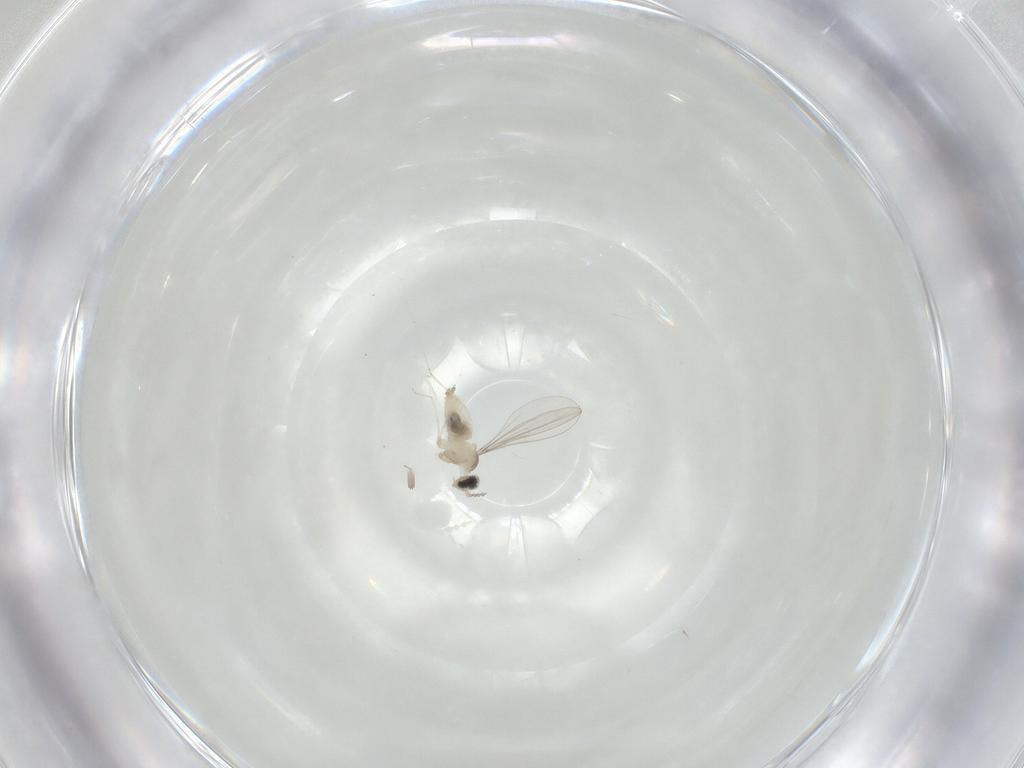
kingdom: Animalia
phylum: Arthropoda
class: Insecta
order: Diptera
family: Cecidomyiidae
